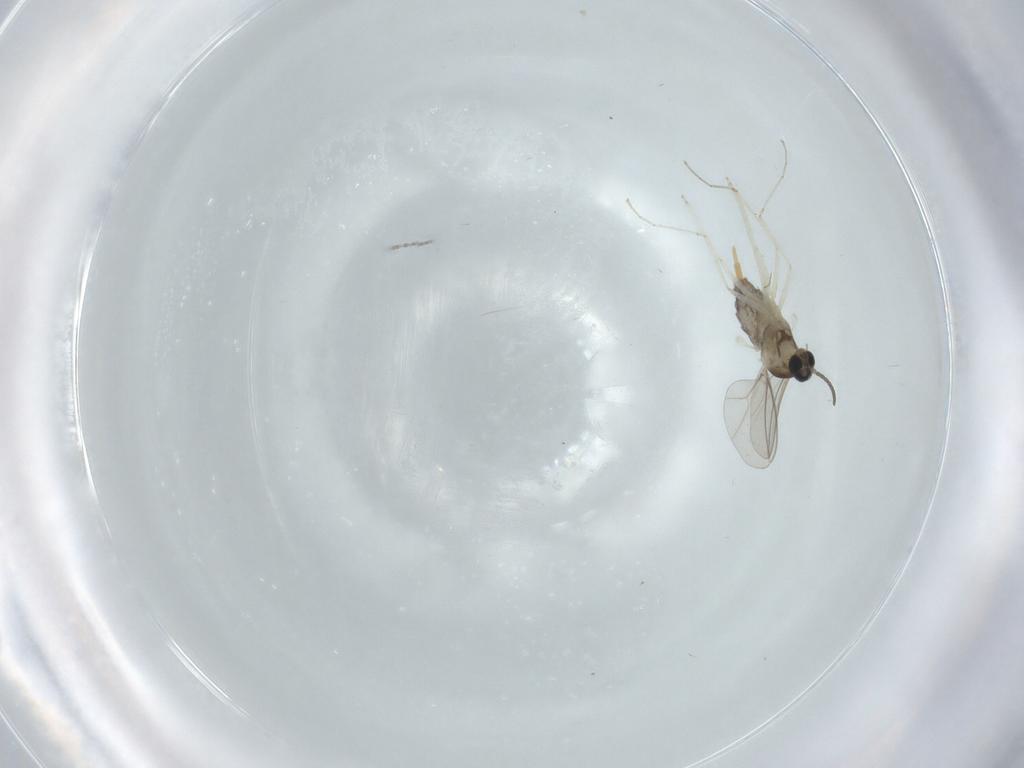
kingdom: Animalia
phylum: Arthropoda
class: Insecta
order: Diptera
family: Cecidomyiidae
